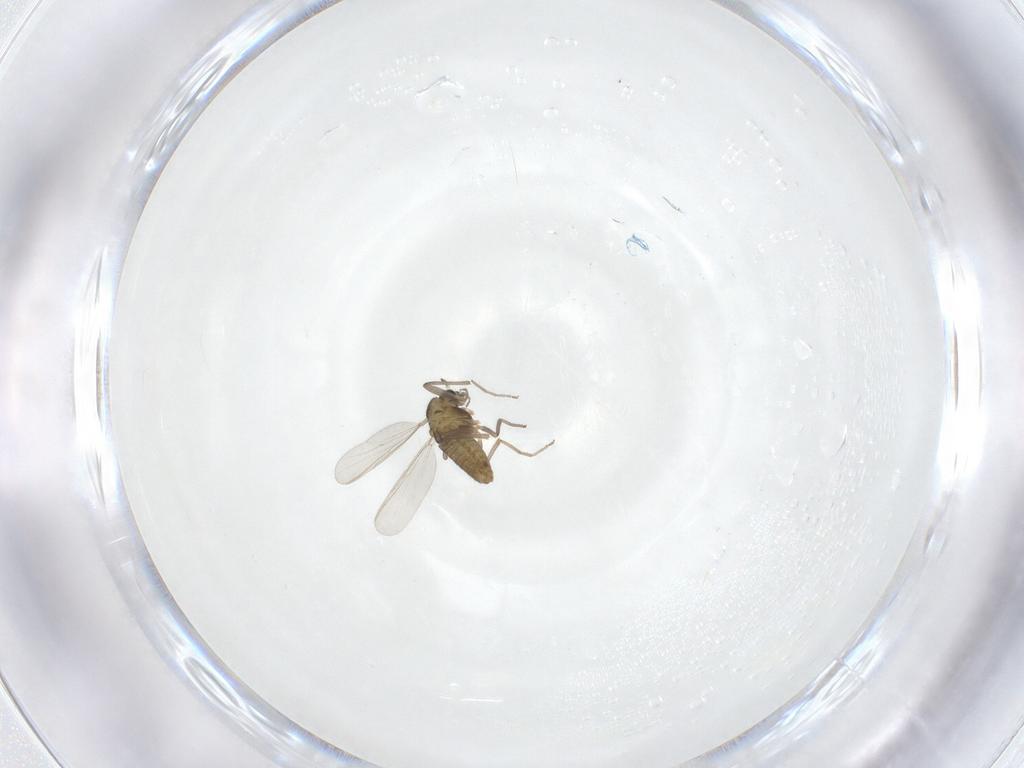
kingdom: Animalia
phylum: Arthropoda
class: Insecta
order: Diptera
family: Chironomidae
